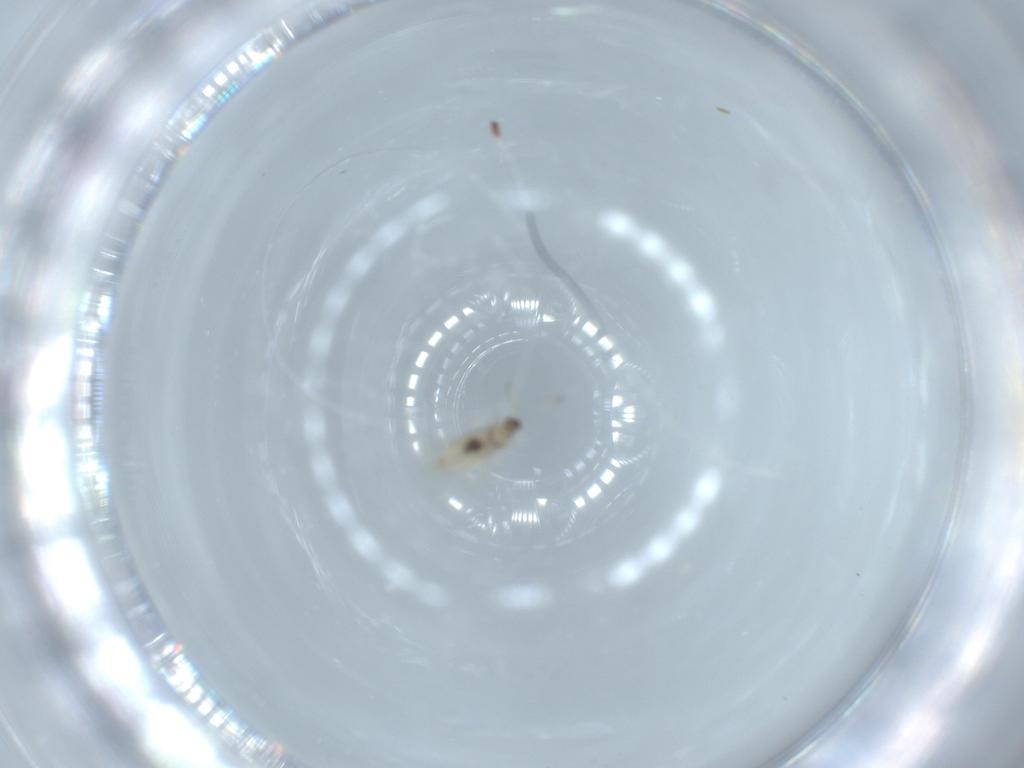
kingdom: Animalia
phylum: Arthropoda
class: Insecta
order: Diptera
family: Cecidomyiidae
